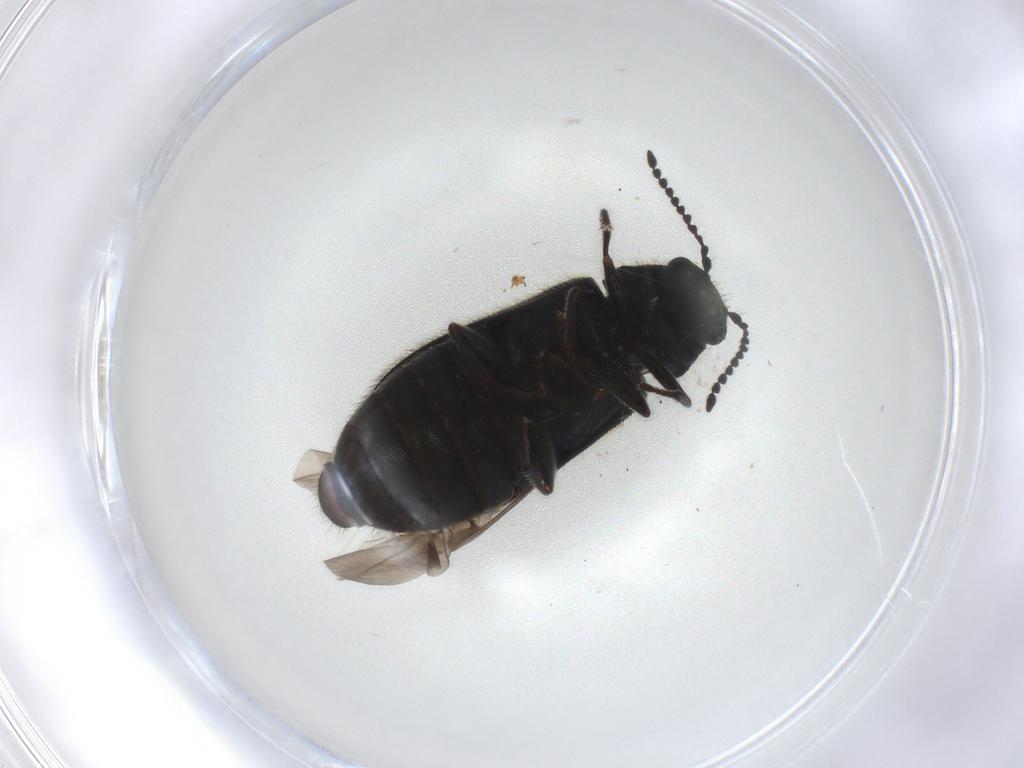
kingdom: Animalia
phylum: Arthropoda
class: Insecta
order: Coleoptera
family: Melyridae
